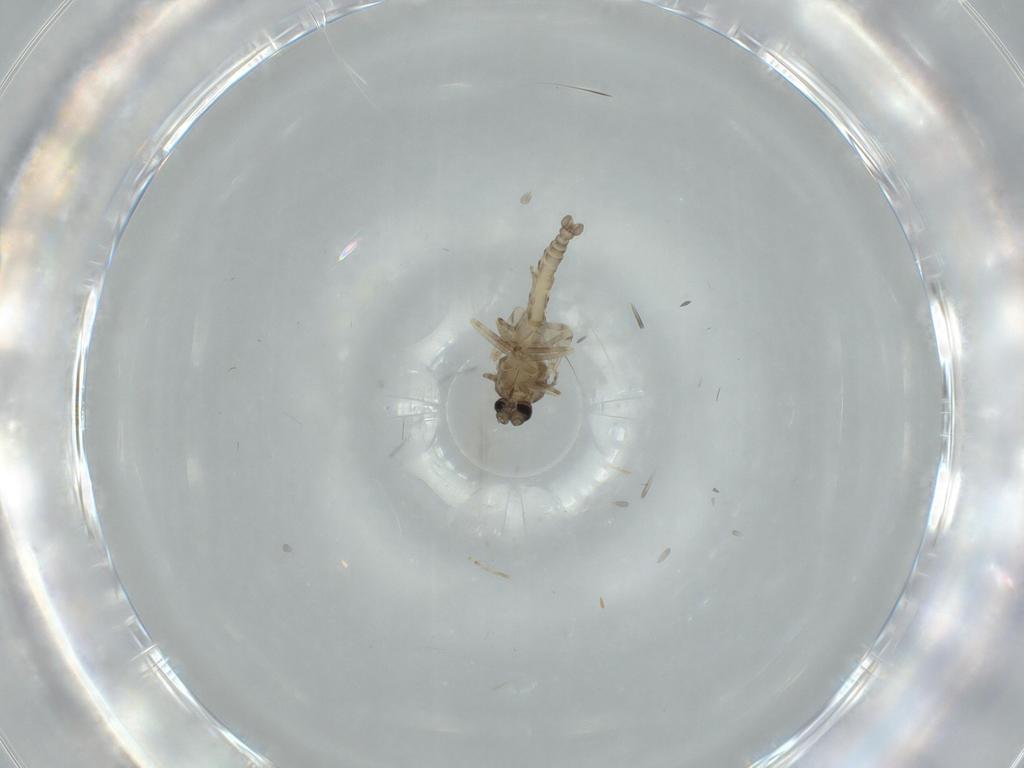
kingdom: Animalia
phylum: Arthropoda
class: Insecta
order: Diptera
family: Ceratopogonidae
